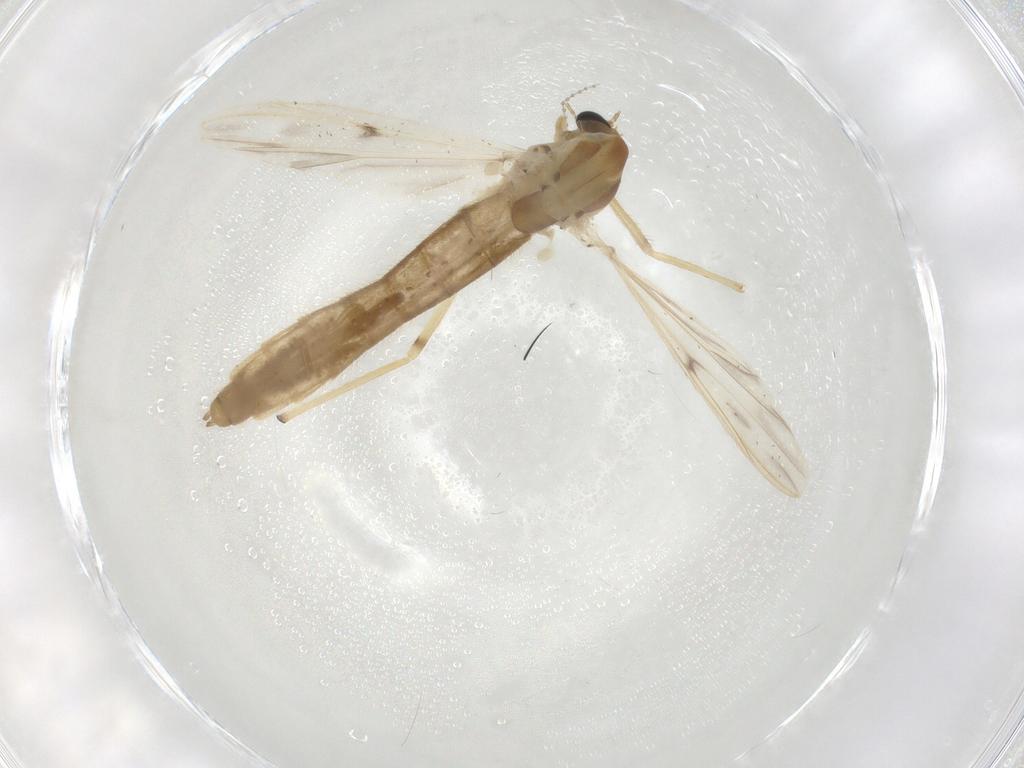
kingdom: Animalia
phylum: Arthropoda
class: Insecta
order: Diptera
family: Chironomidae
